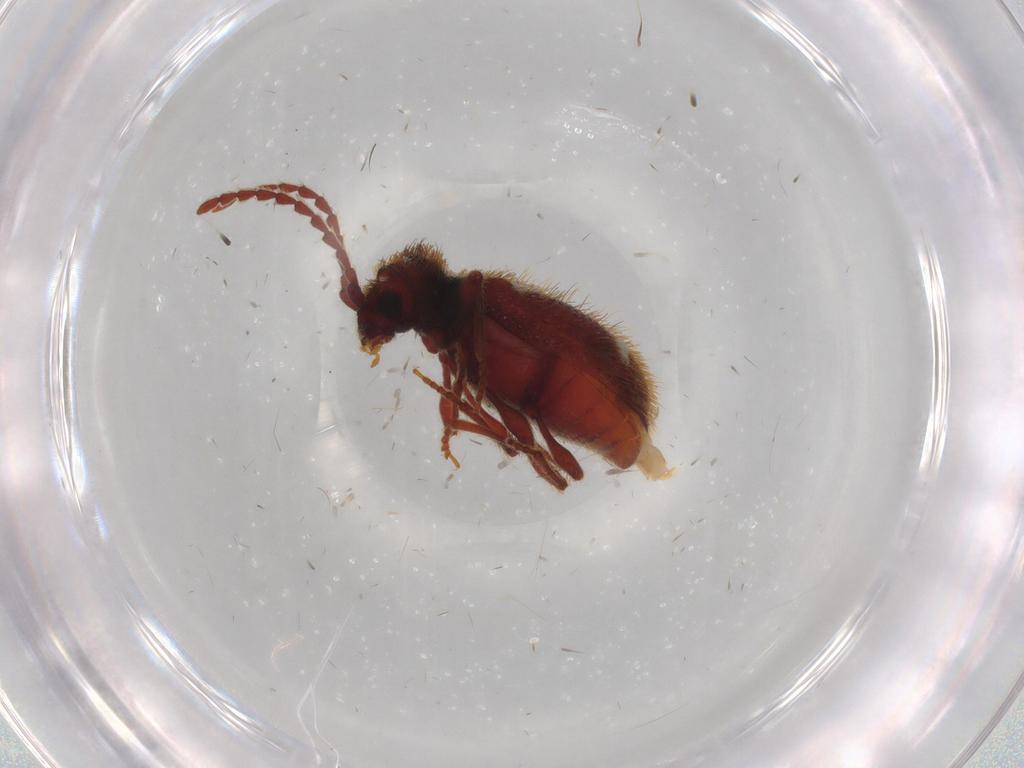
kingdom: Animalia
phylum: Arthropoda
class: Insecta
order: Coleoptera
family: Ptinidae
